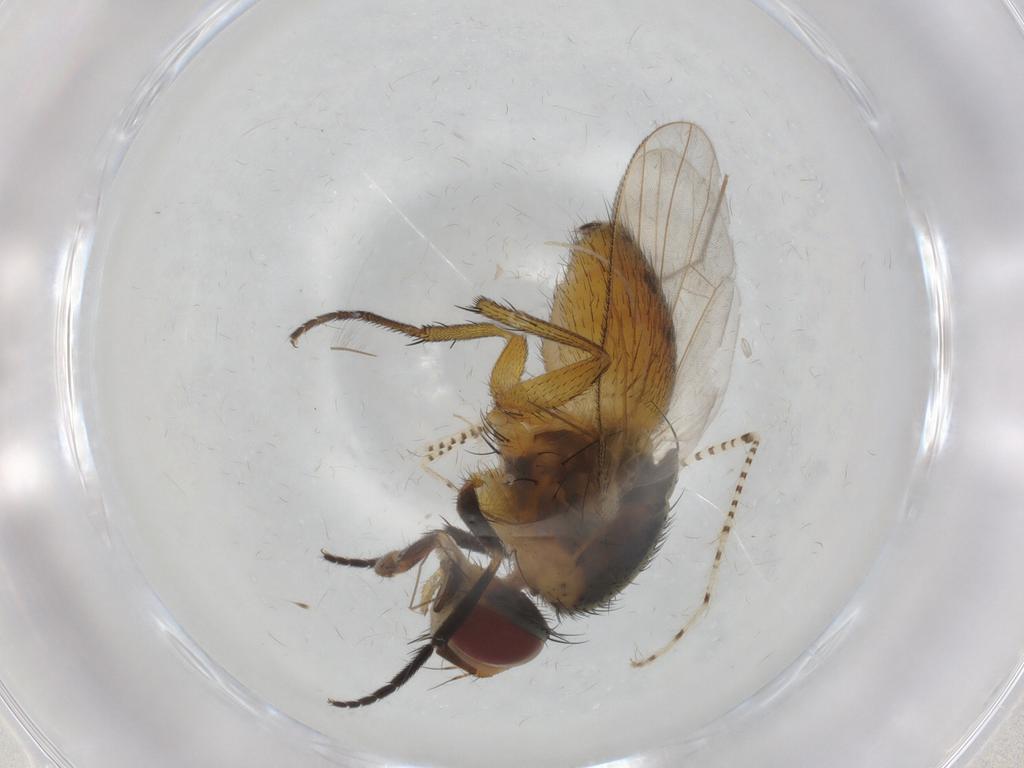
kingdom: Animalia
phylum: Arthropoda
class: Insecta
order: Diptera
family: Muscidae
